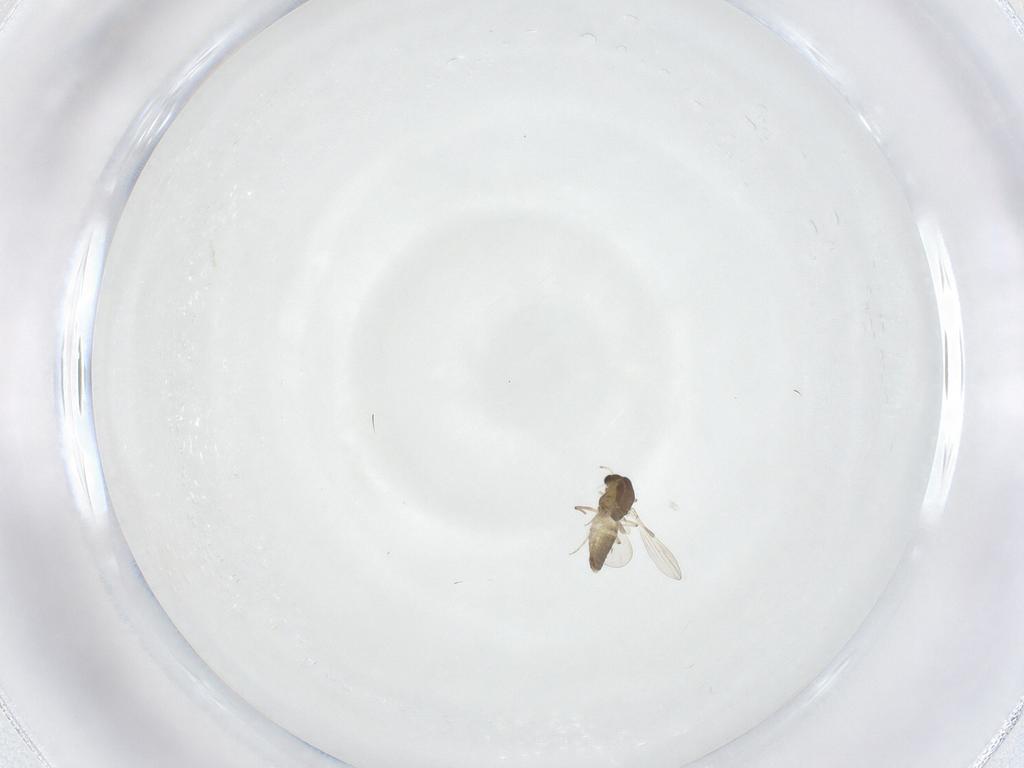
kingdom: Animalia
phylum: Arthropoda
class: Insecta
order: Diptera
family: Chironomidae
